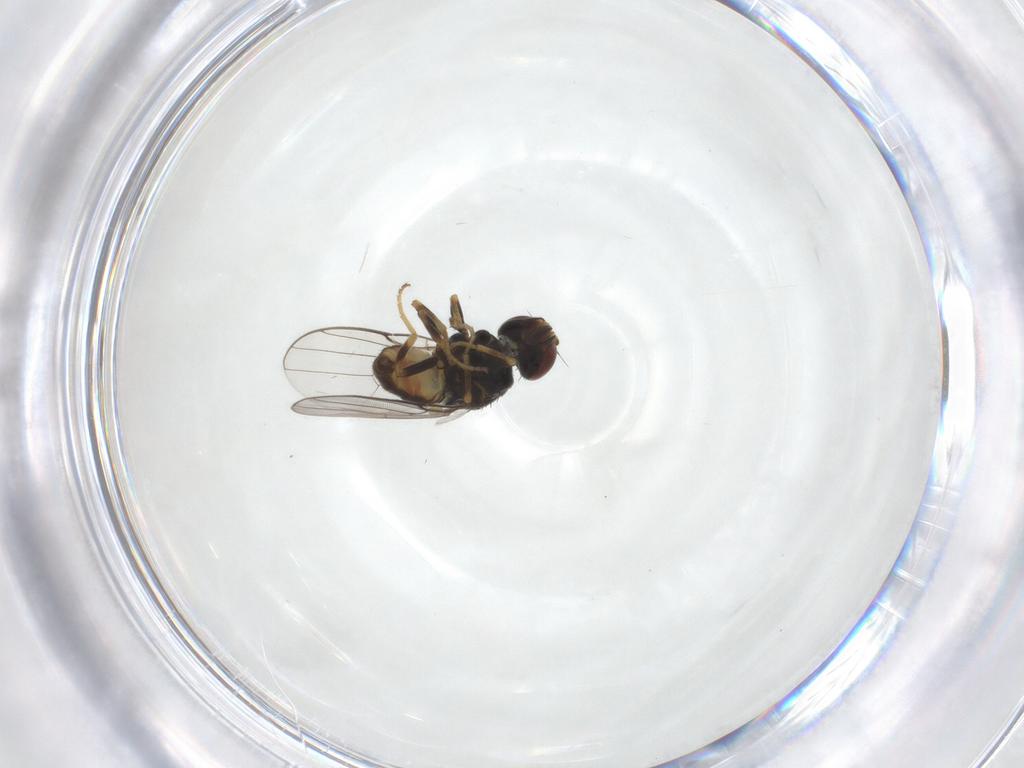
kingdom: Animalia
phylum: Arthropoda
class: Insecta
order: Diptera
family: Chloropidae
